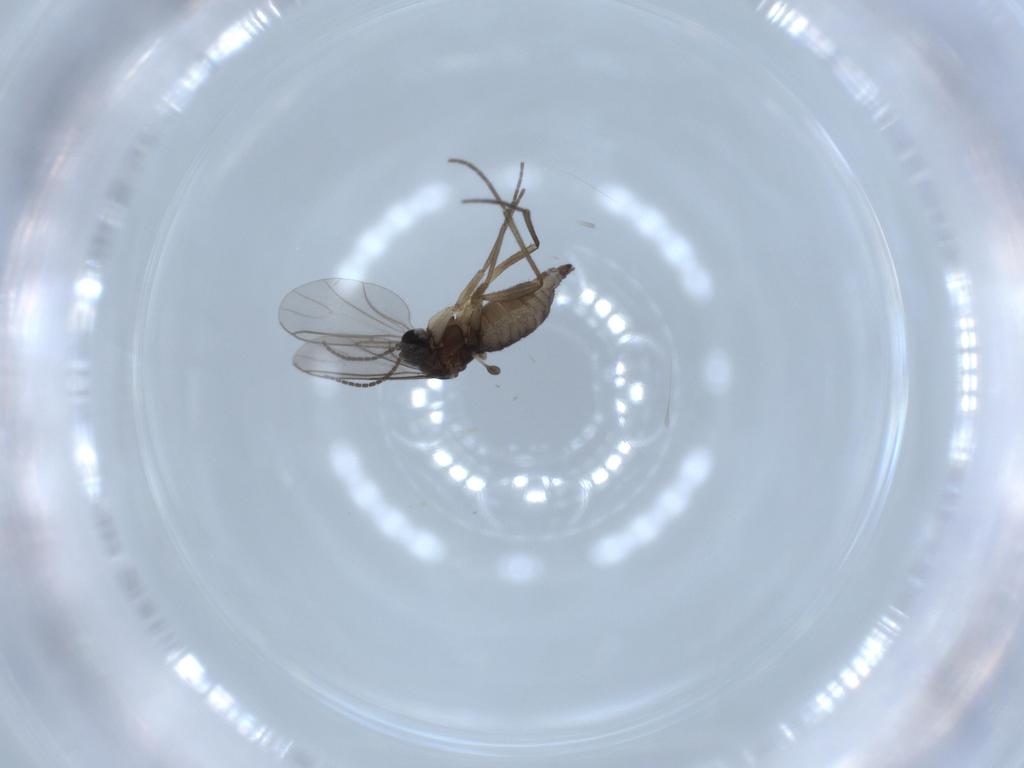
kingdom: Animalia
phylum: Arthropoda
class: Insecta
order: Diptera
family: Sciaridae
